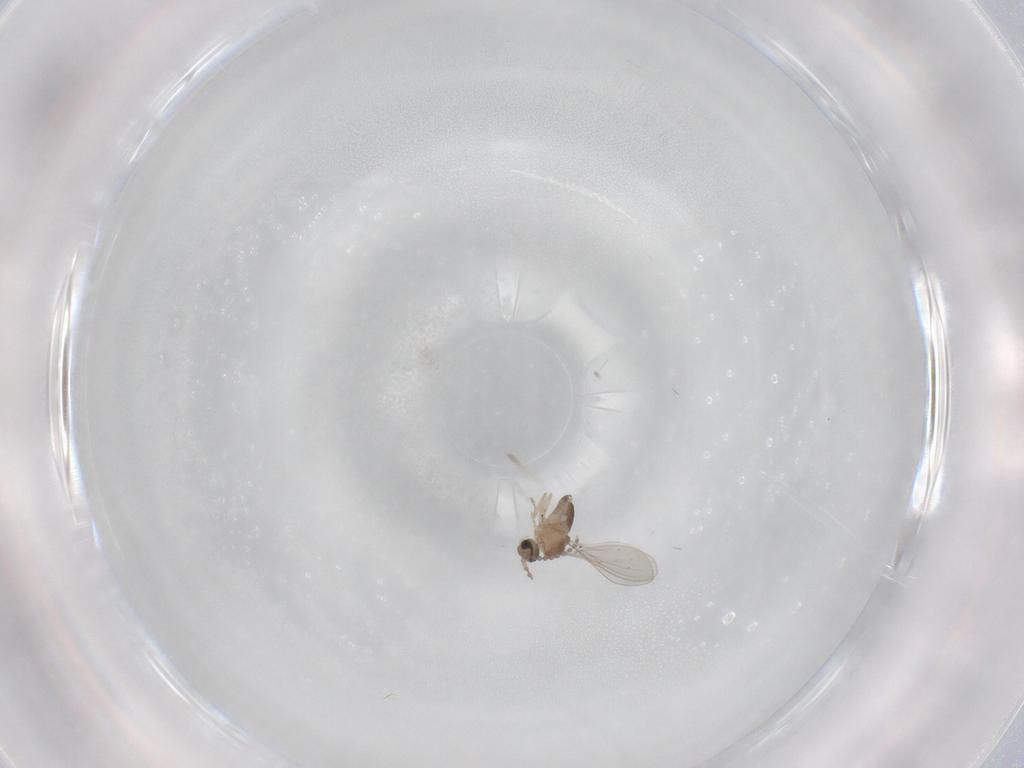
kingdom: Animalia
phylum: Arthropoda
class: Insecta
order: Diptera
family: Cecidomyiidae
